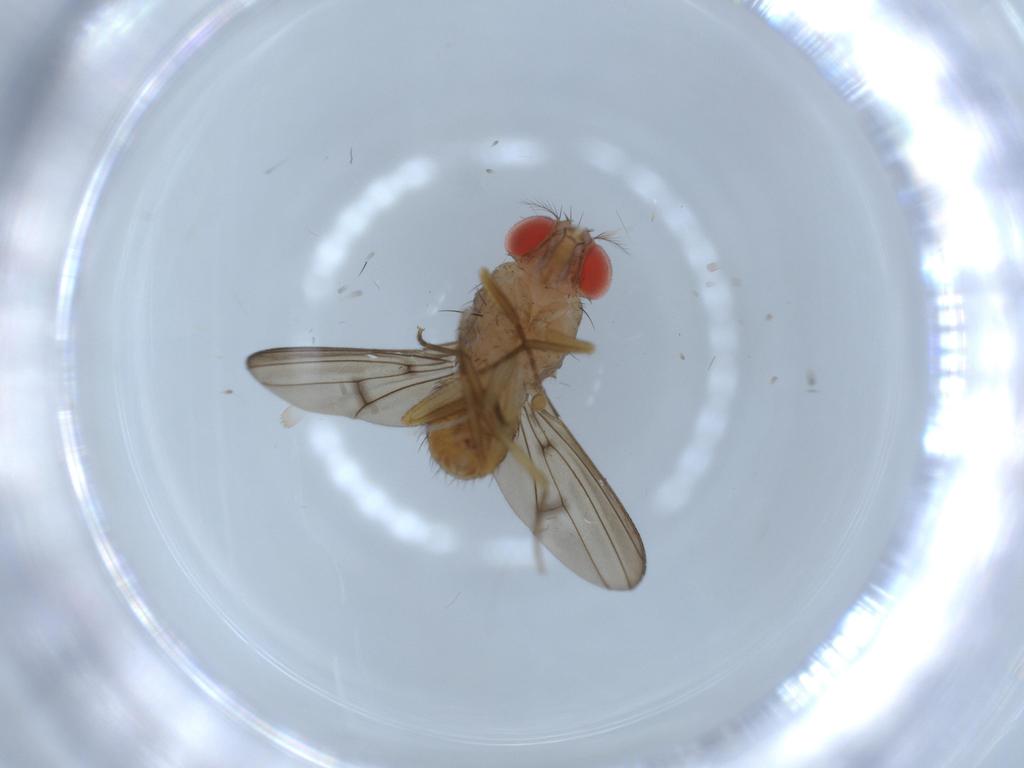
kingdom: Animalia
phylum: Arthropoda
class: Insecta
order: Diptera
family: Drosophilidae
